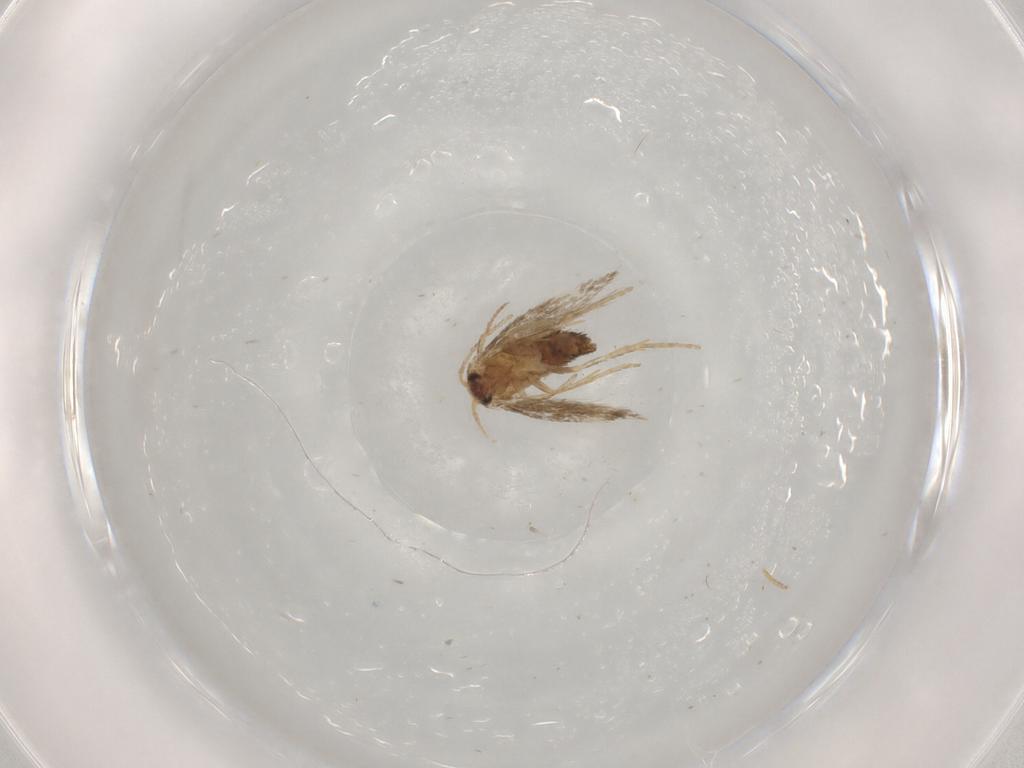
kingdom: Animalia
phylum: Arthropoda
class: Insecta
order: Lepidoptera
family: Nepticulidae
